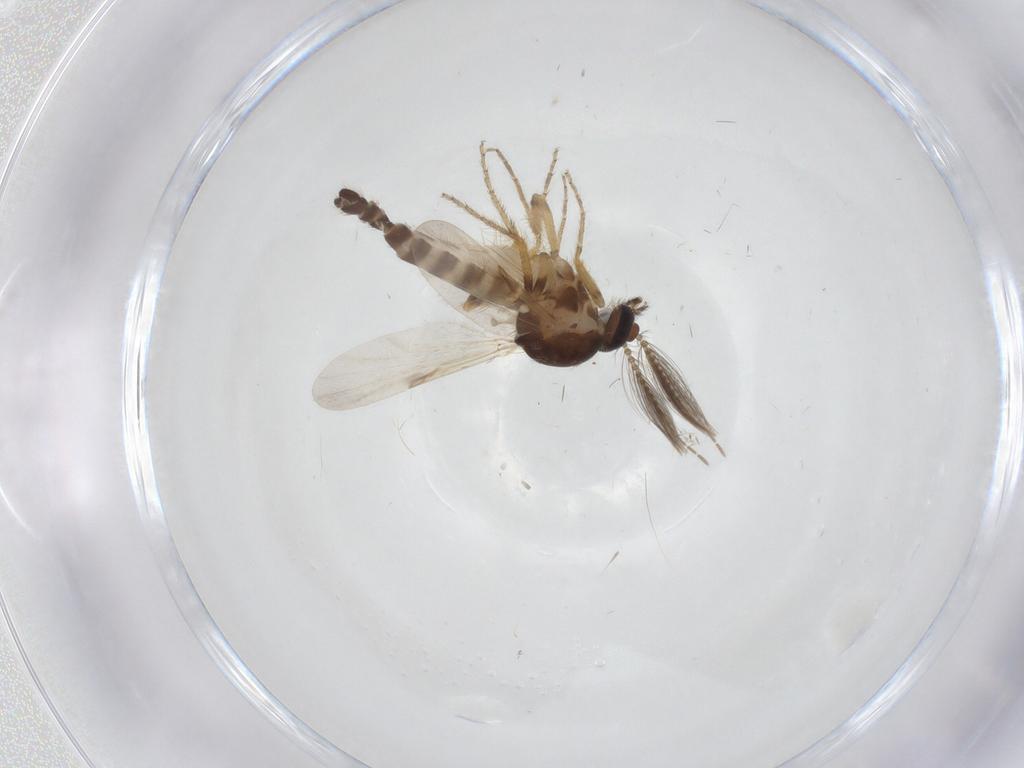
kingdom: Animalia
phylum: Arthropoda
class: Insecta
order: Diptera
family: Ceratopogonidae
